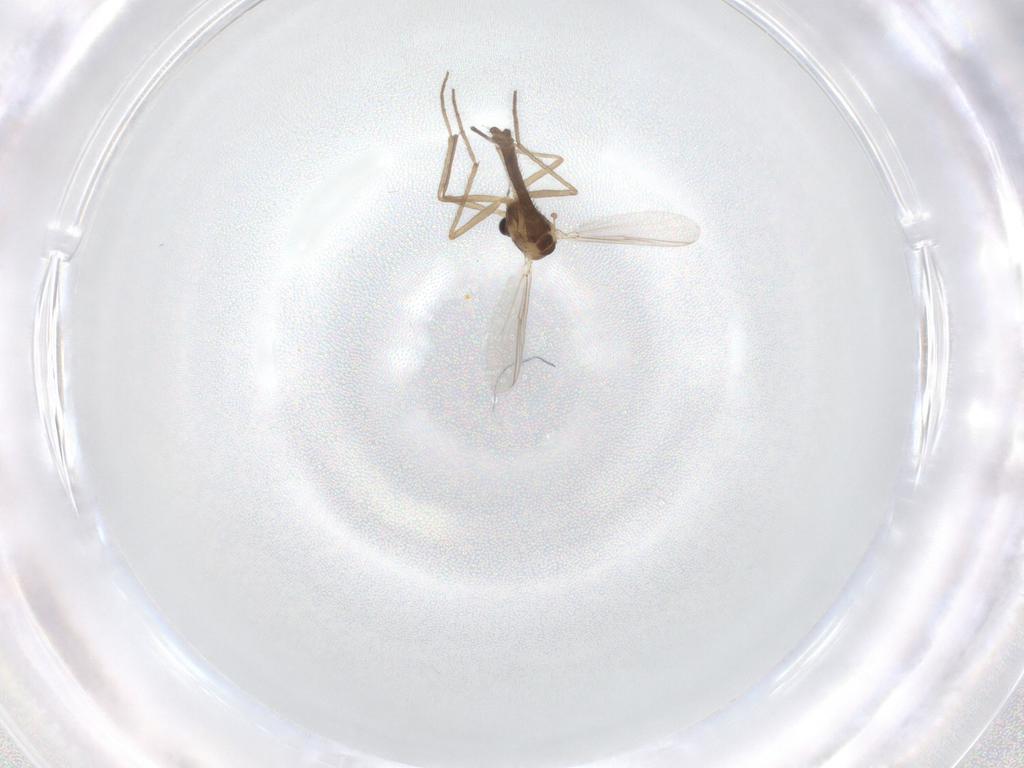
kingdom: Animalia
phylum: Arthropoda
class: Insecta
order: Diptera
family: Chironomidae
